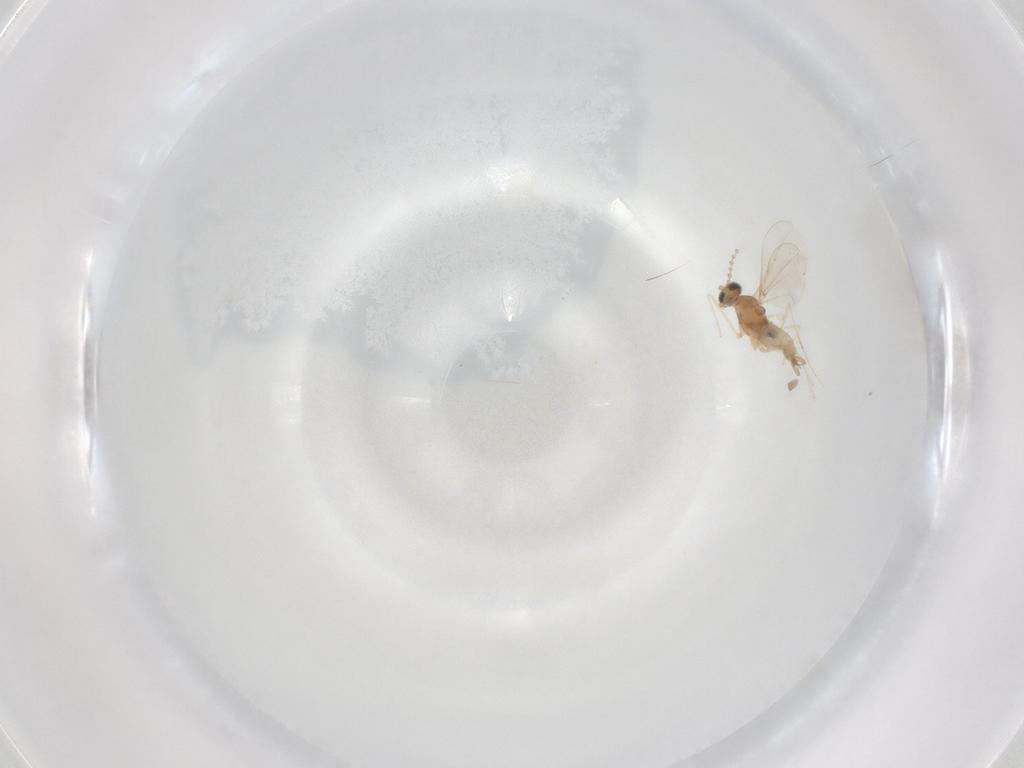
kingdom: Animalia
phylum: Arthropoda
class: Insecta
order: Diptera
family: Cecidomyiidae
